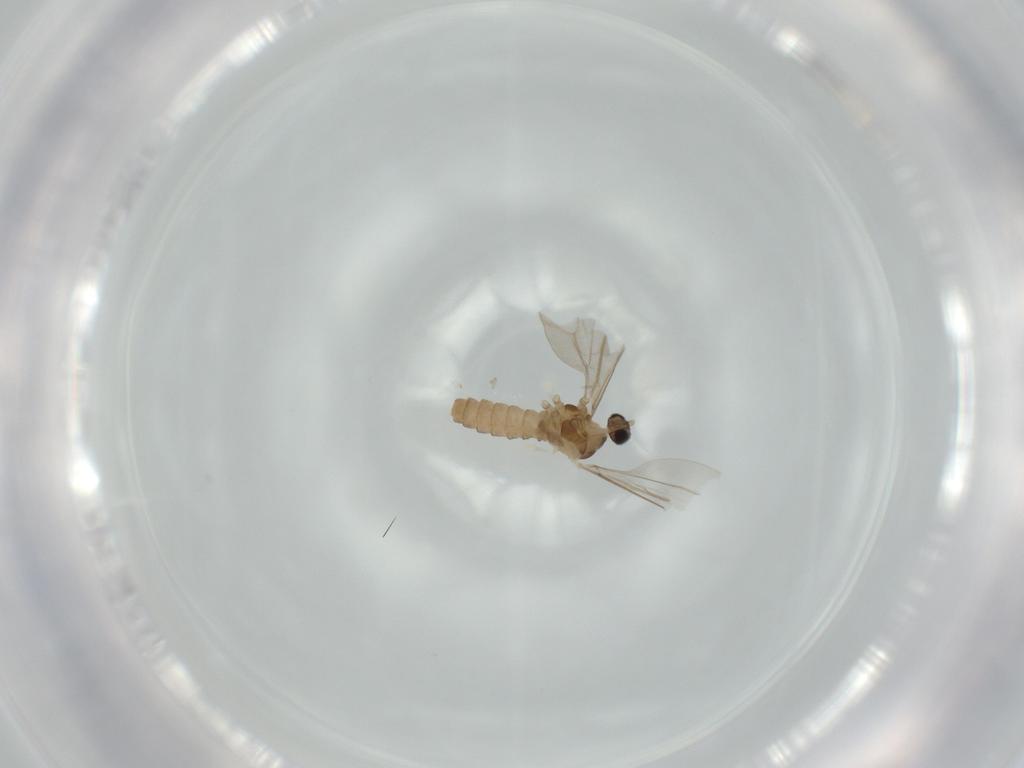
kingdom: Animalia
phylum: Arthropoda
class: Insecta
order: Diptera
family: Cecidomyiidae
